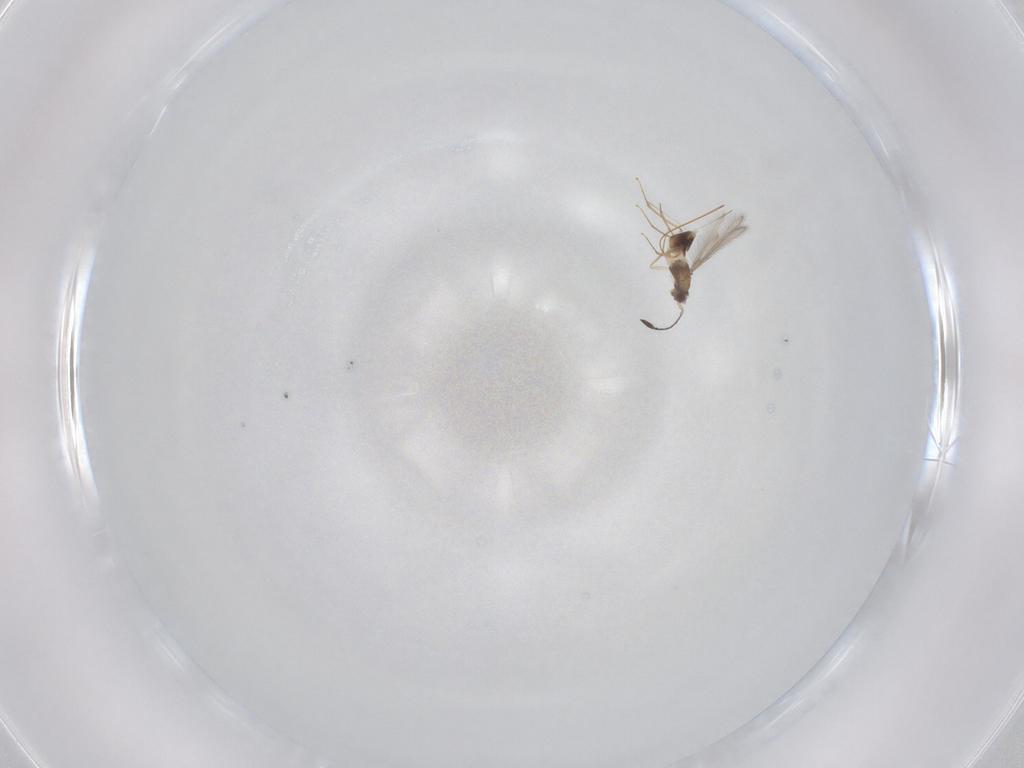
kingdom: Animalia
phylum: Arthropoda
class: Insecta
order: Hymenoptera
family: Mymaridae
